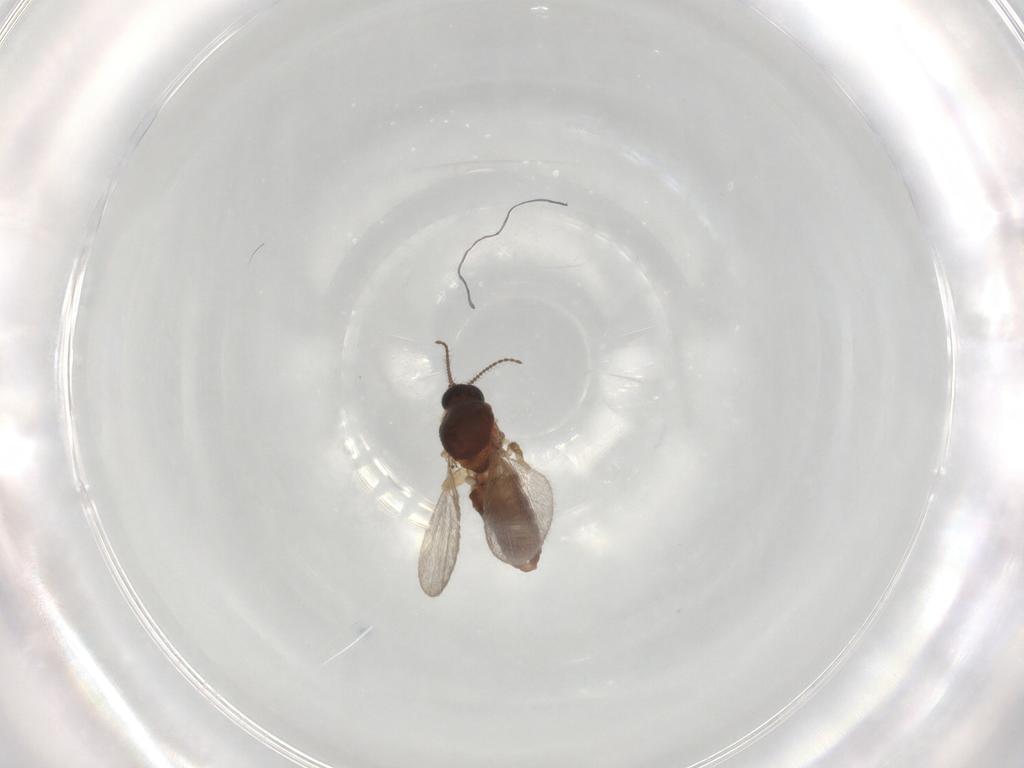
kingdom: Animalia
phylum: Arthropoda
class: Insecta
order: Diptera
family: Ceratopogonidae
